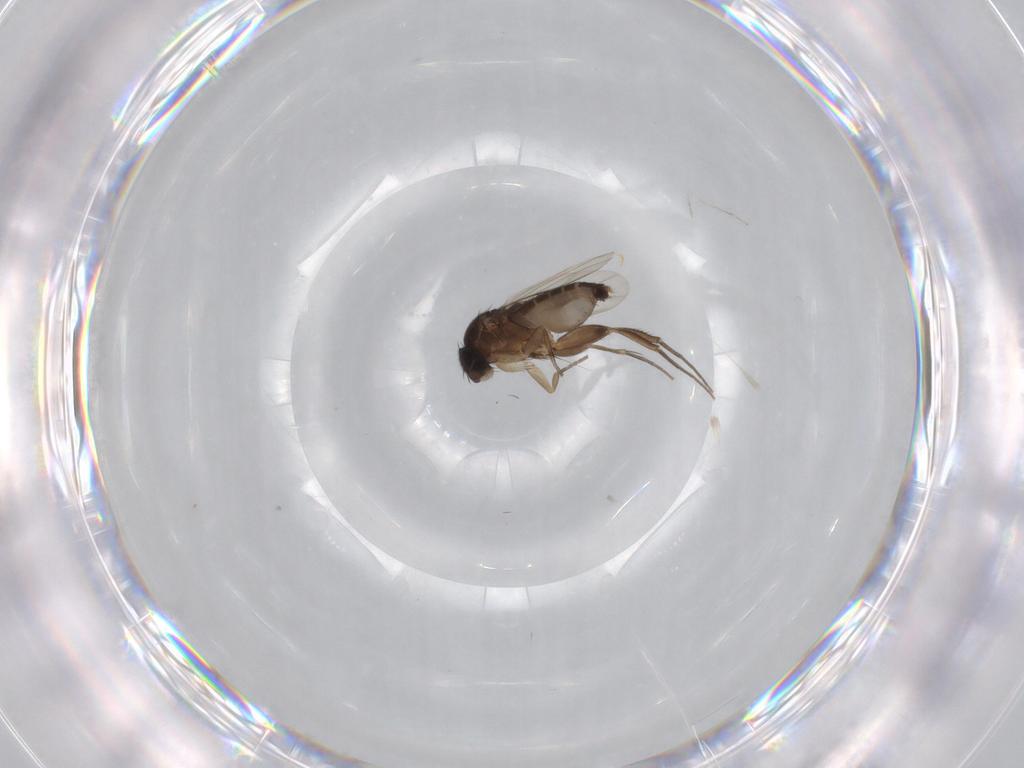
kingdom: Animalia
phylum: Arthropoda
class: Insecta
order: Diptera
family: Phoridae
